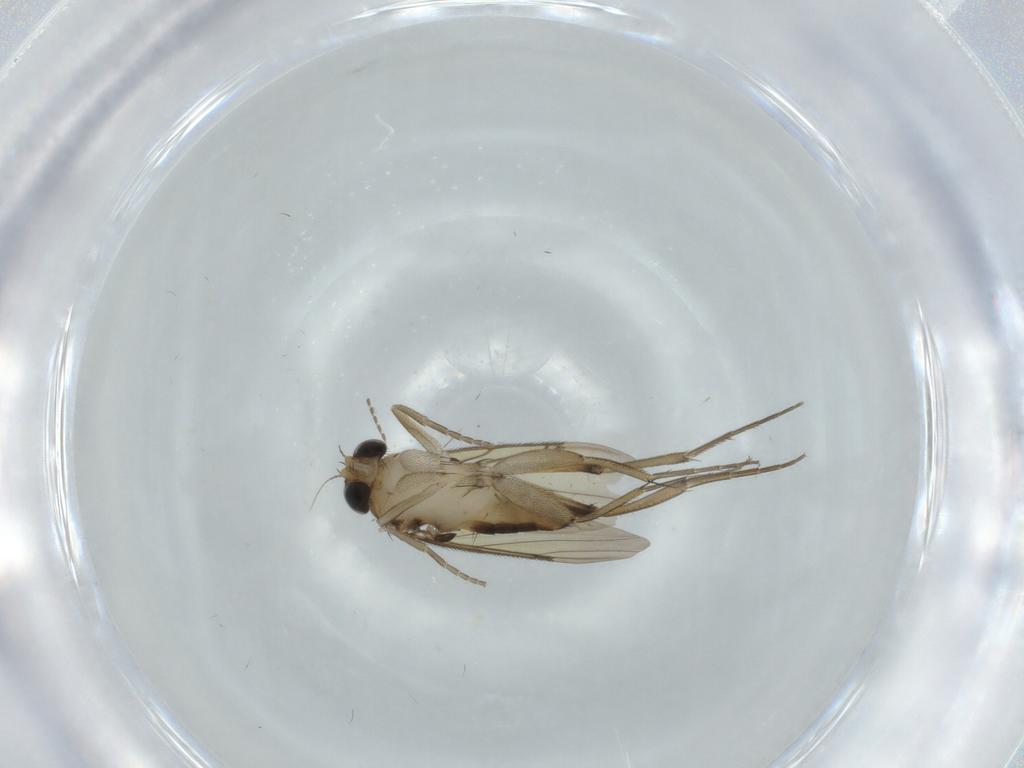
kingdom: Animalia
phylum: Arthropoda
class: Insecta
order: Diptera
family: Phoridae
